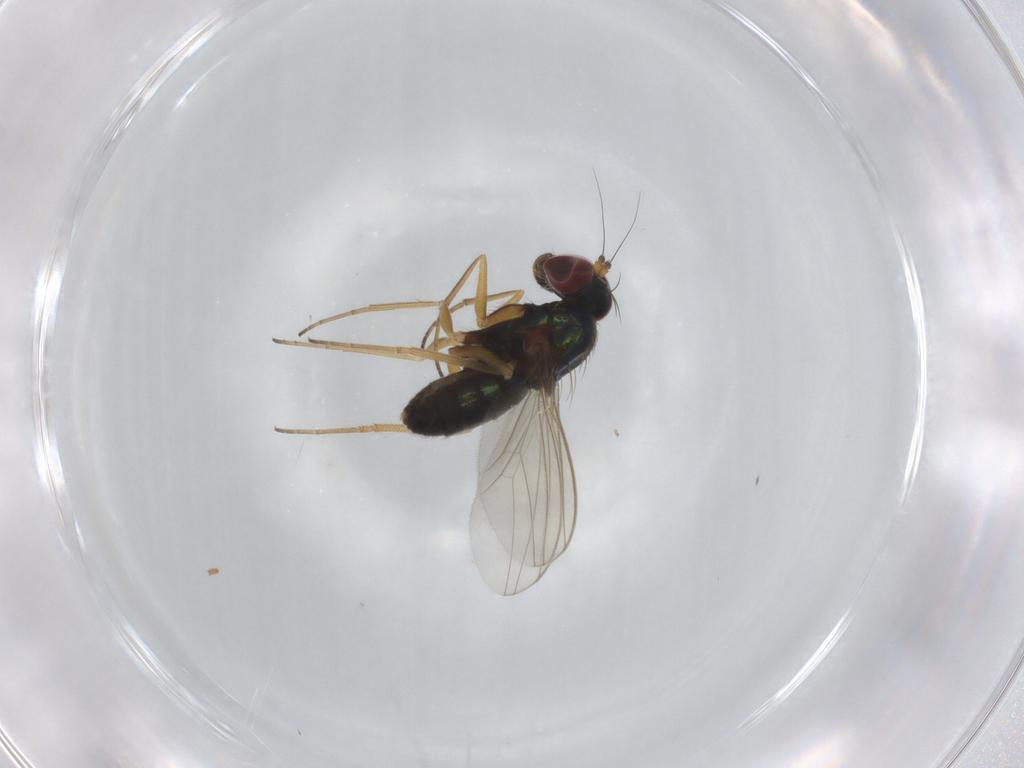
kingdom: Animalia
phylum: Arthropoda
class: Insecta
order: Diptera
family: Dolichopodidae
